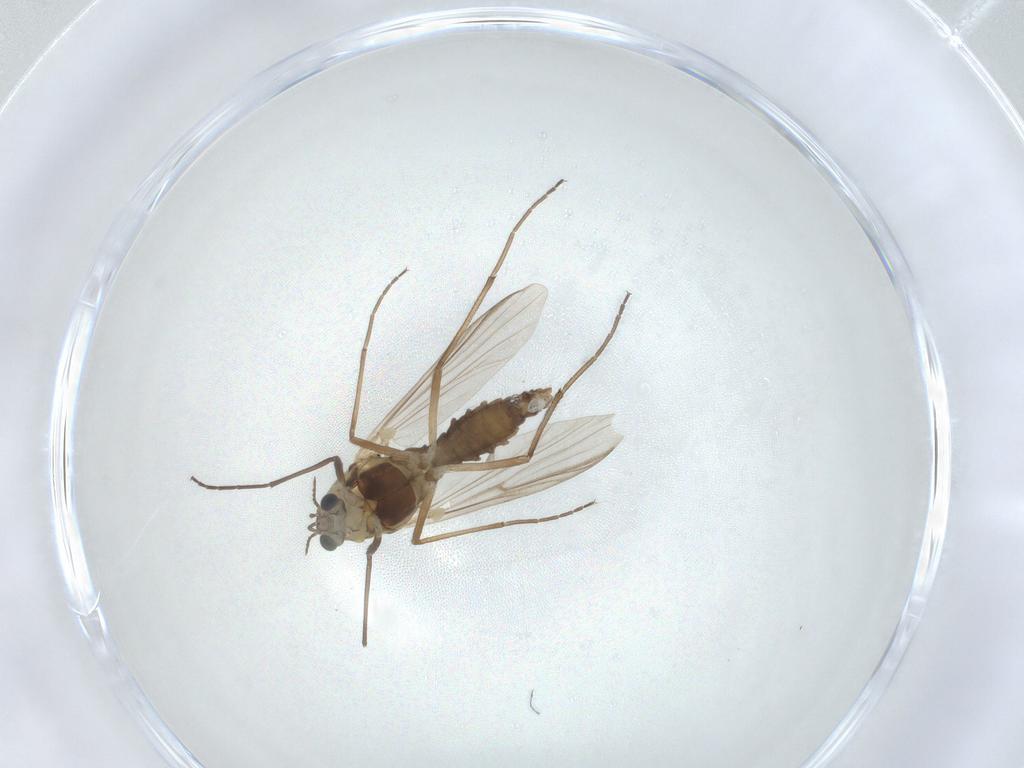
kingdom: Animalia
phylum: Arthropoda
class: Insecta
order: Diptera
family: Chironomidae
